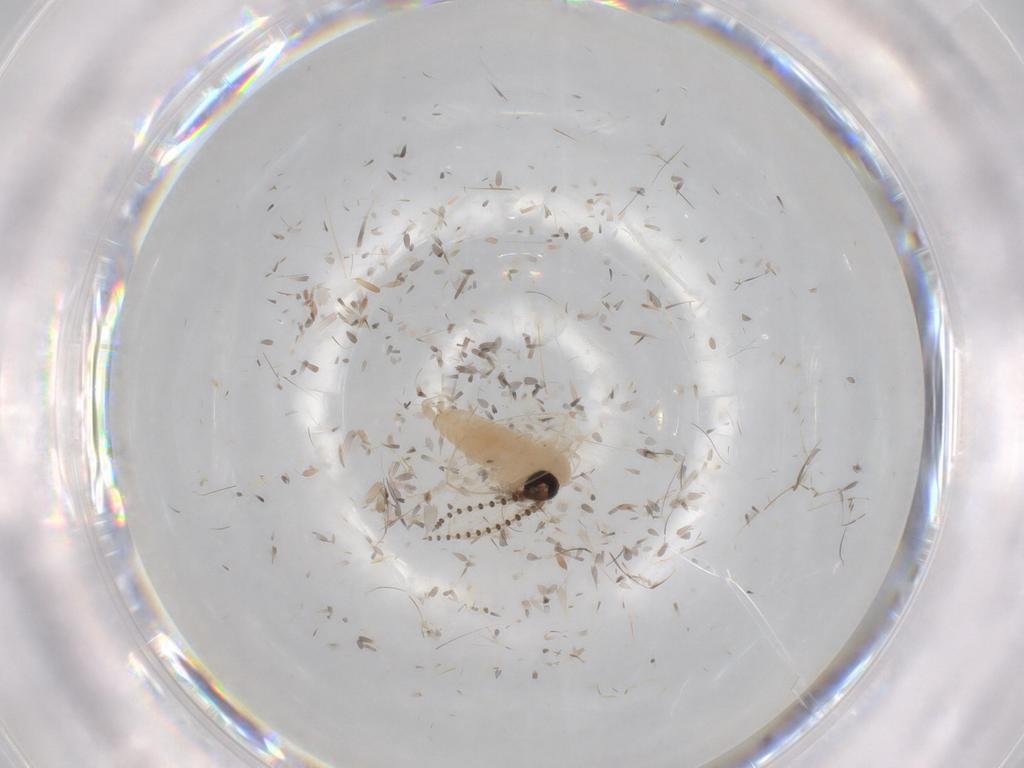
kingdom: Animalia
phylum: Arthropoda
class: Insecta
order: Diptera
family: Psychodidae
